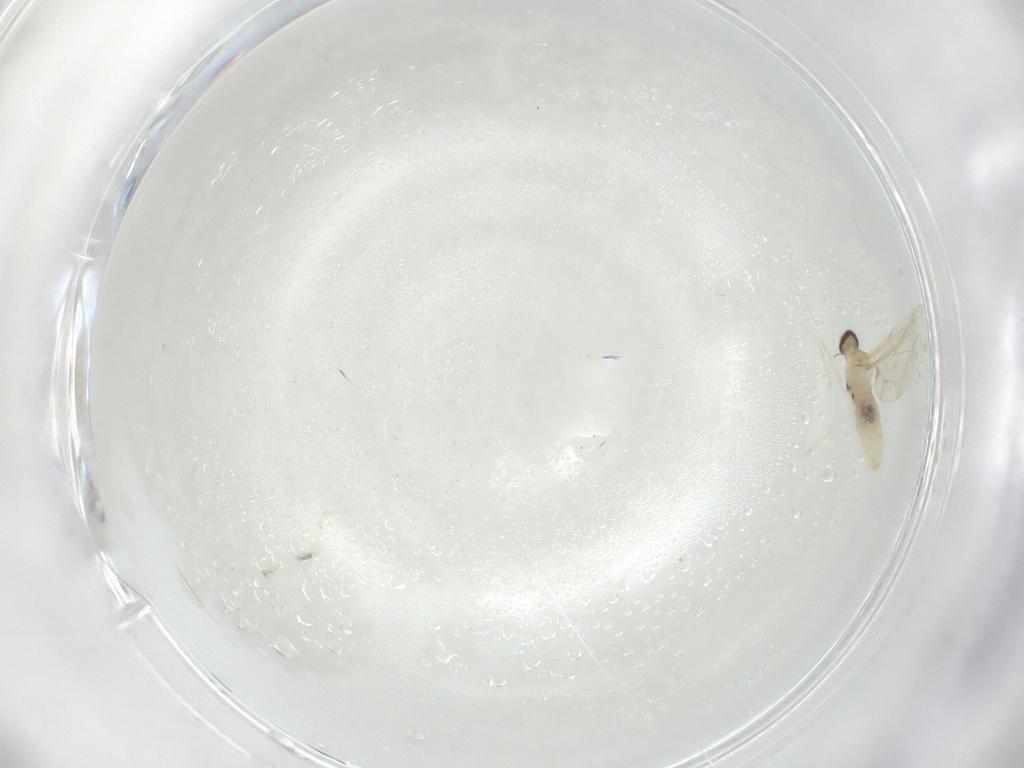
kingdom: Animalia
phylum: Arthropoda
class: Insecta
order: Diptera
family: Cecidomyiidae
